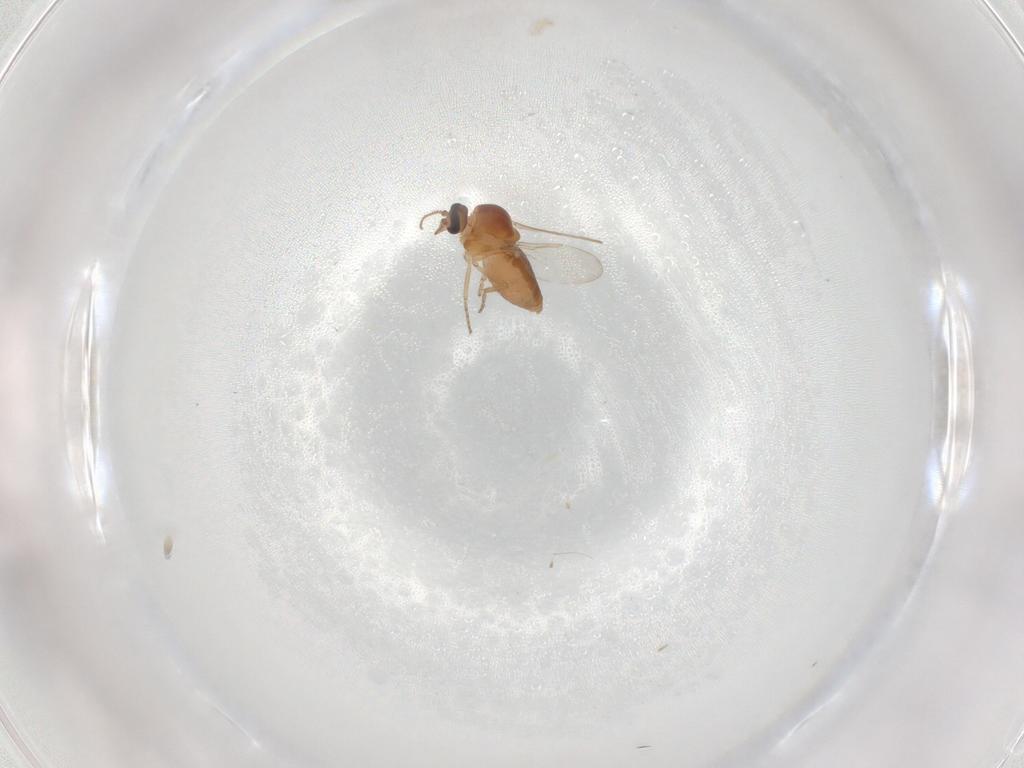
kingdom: Animalia
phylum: Arthropoda
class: Insecta
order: Diptera
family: Ceratopogonidae
